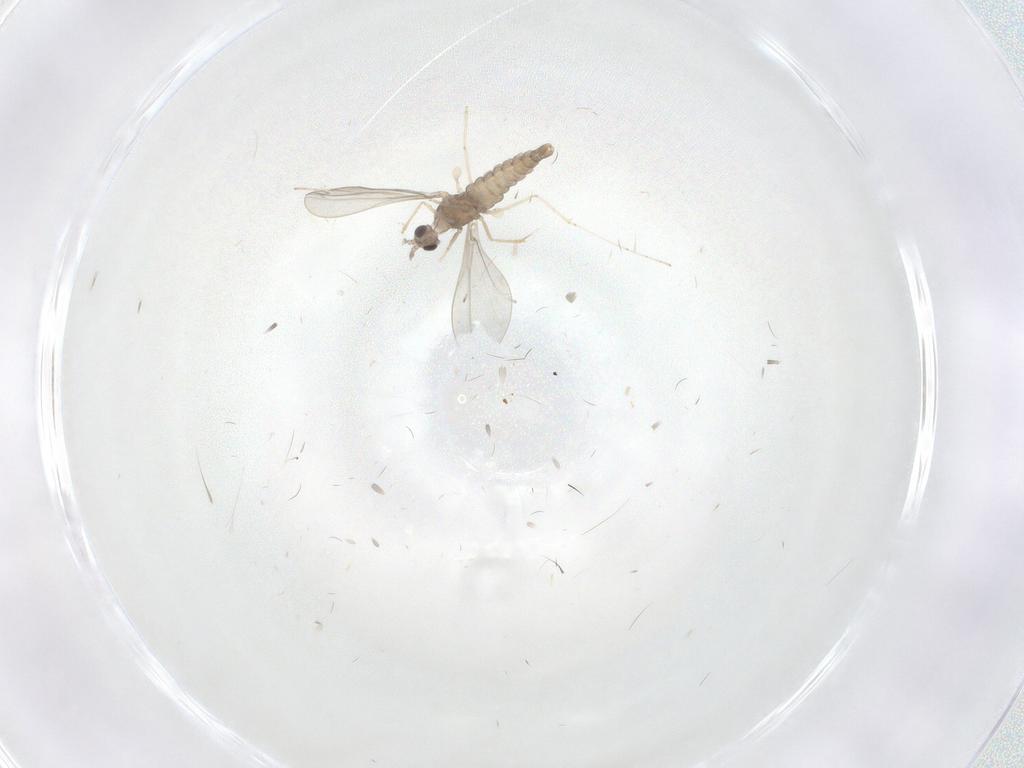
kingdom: Animalia
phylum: Arthropoda
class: Insecta
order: Diptera
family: Cecidomyiidae
